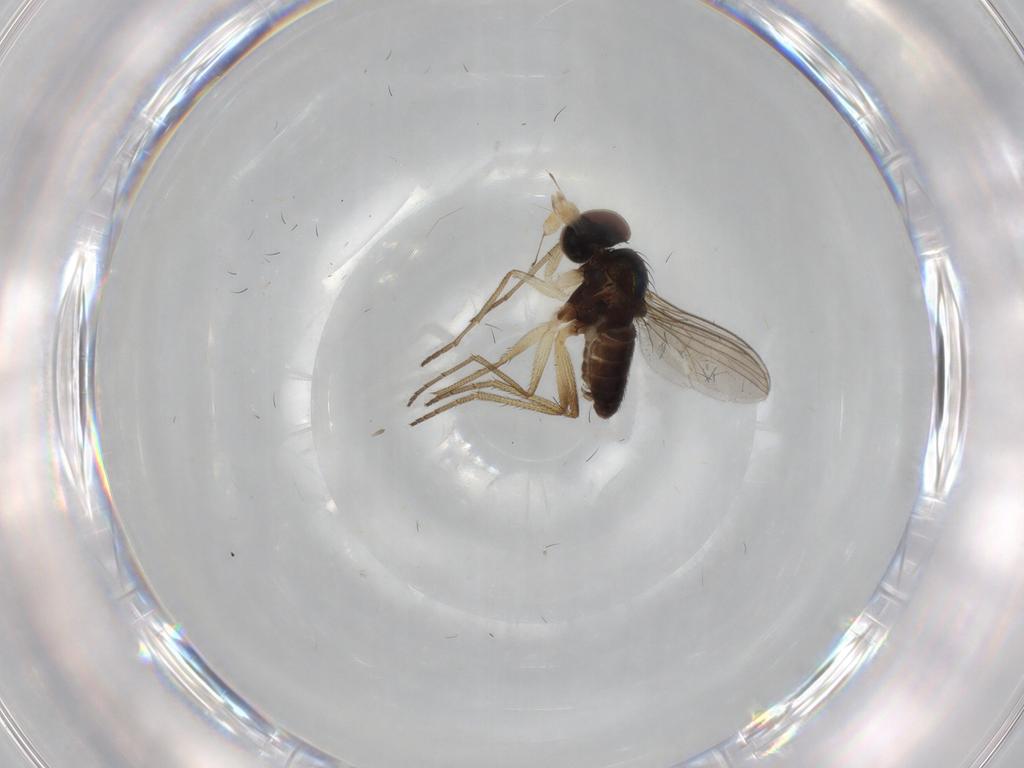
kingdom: Animalia
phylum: Arthropoda
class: Insecta
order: Diptera
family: Dolichopodidae
